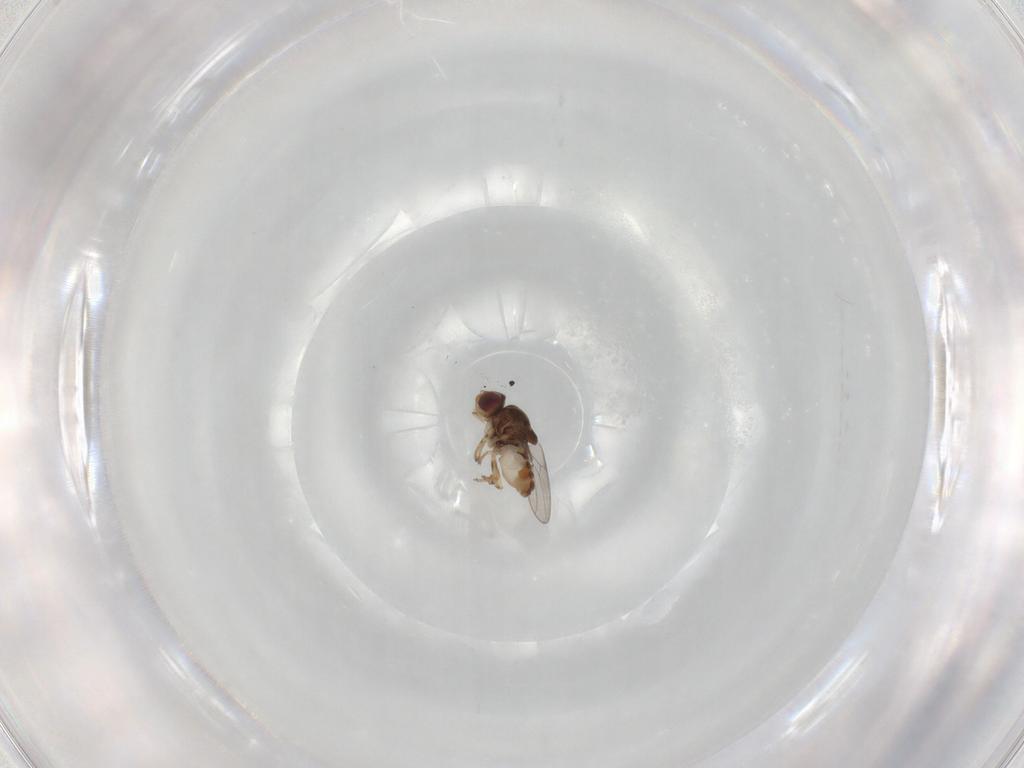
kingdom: Animalia
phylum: Arthropoda
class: Insecta
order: Diptera
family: Chloropidae
